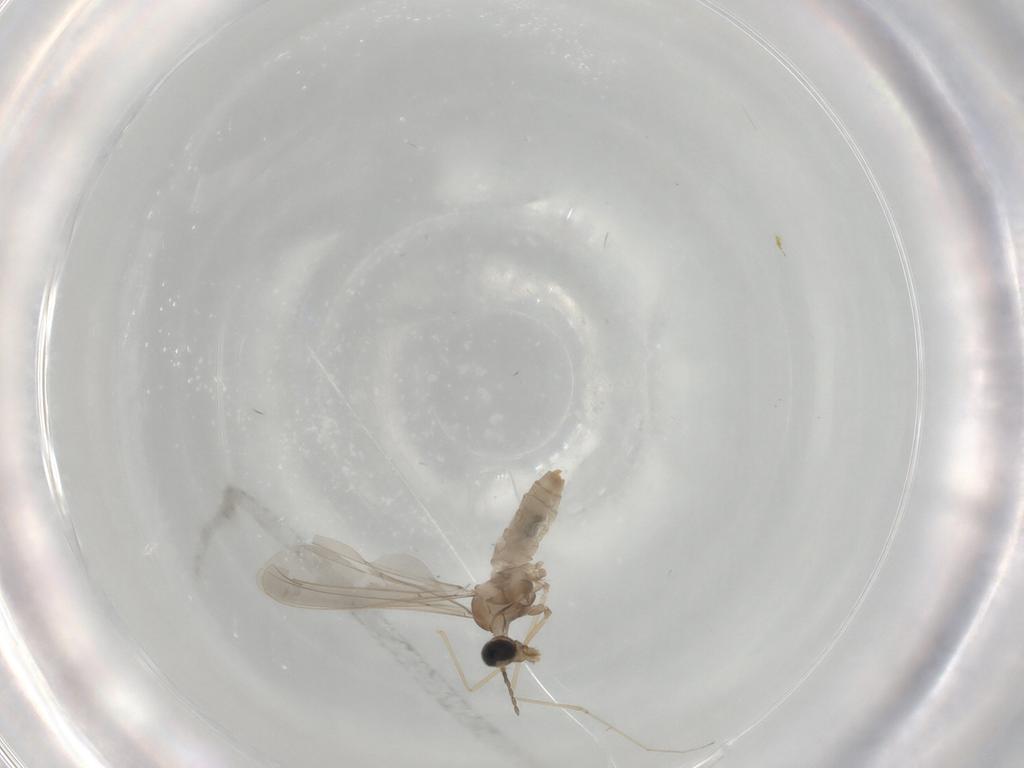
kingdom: Animalia
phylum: Arthropoda
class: Insecta
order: Diptera
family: Cecidomyiidae
